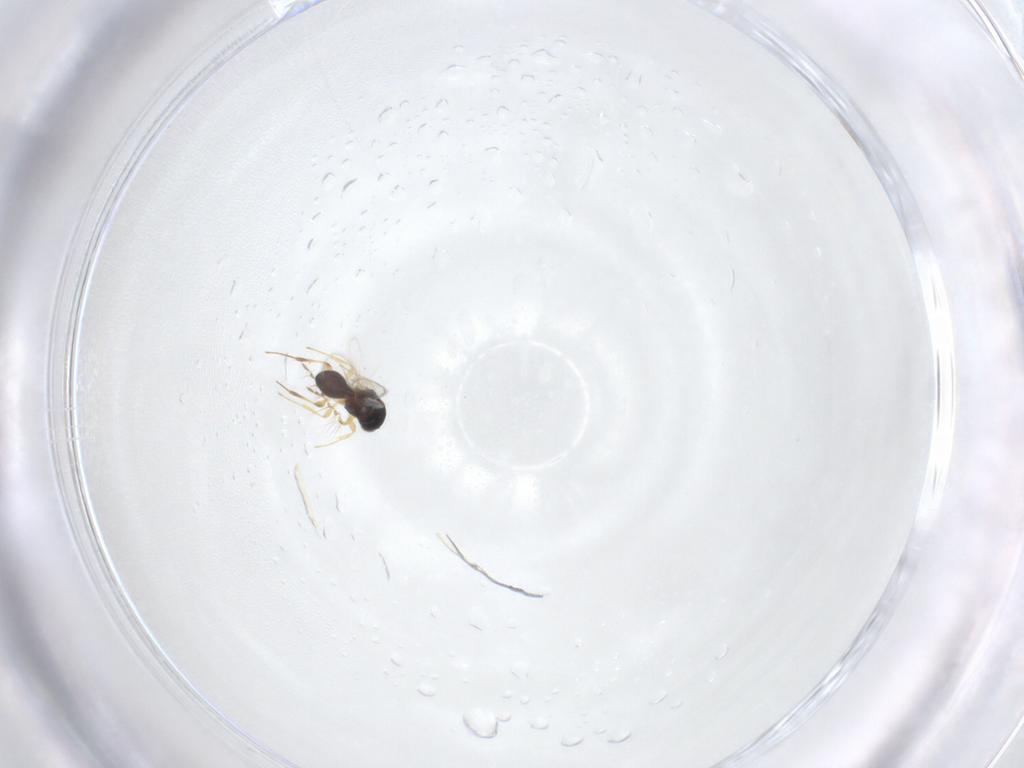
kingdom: Animalia
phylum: Arthropoda
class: Insecta
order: Hymenoptera
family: Platygastridae
